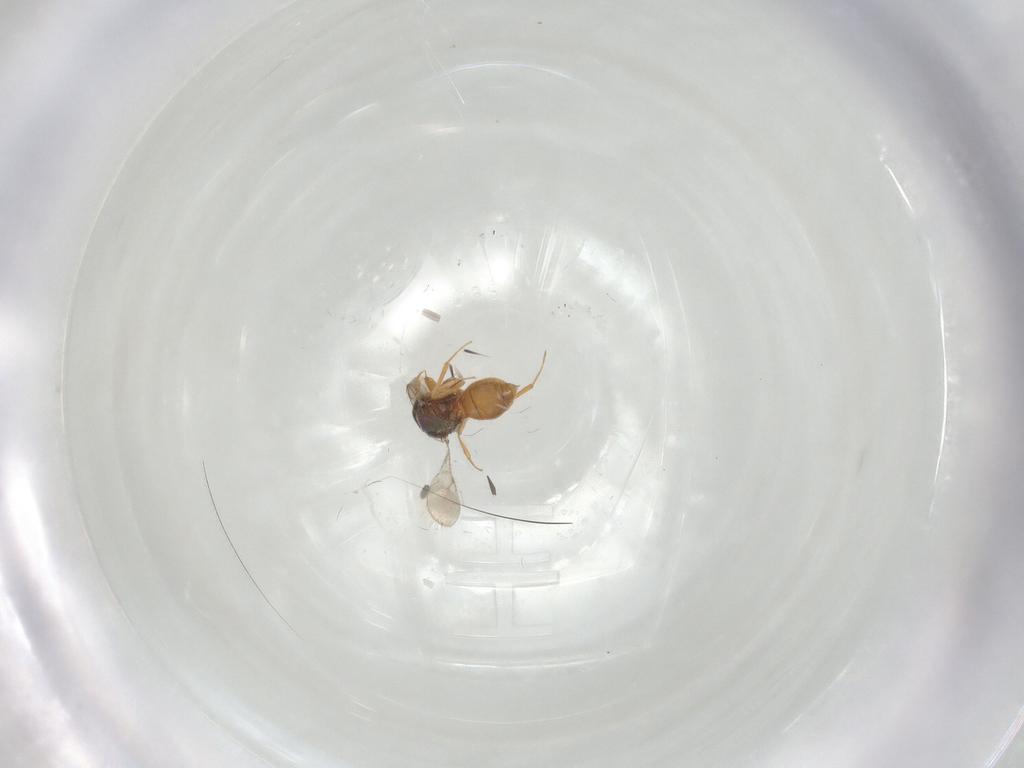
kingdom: Animalia
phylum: Arthropoda
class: Insecta
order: Hymenoptera
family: Scelionidae
